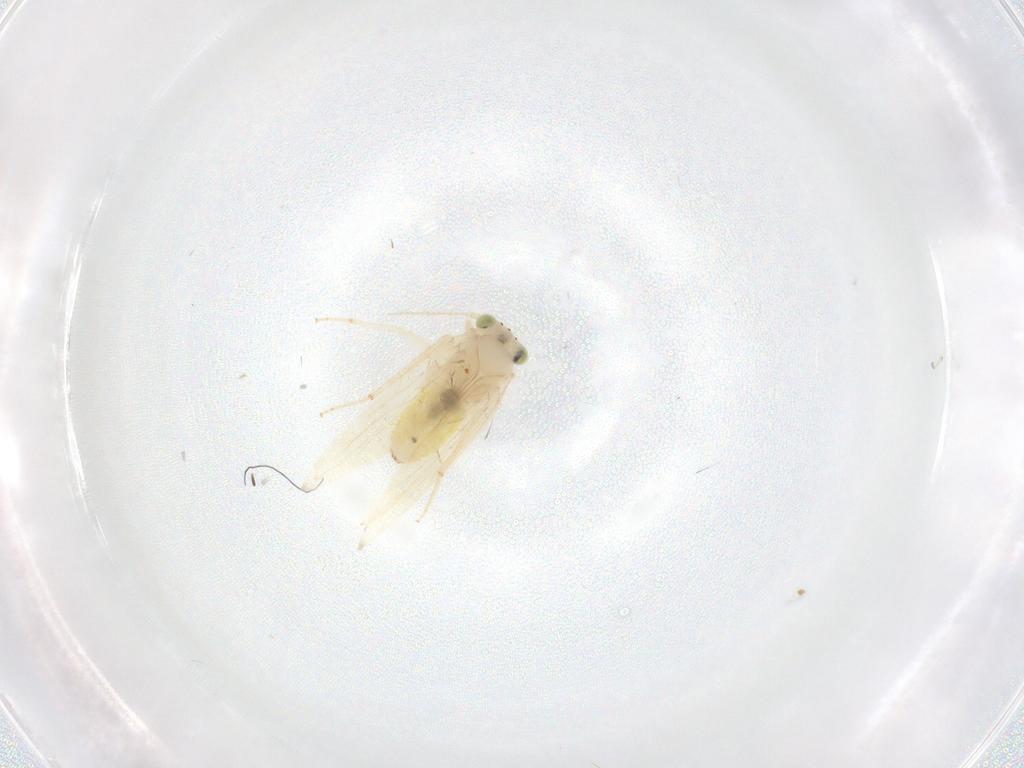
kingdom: Animalia
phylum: Arthropoda
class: Insecta
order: Psocodea
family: Lepidopsocidae
